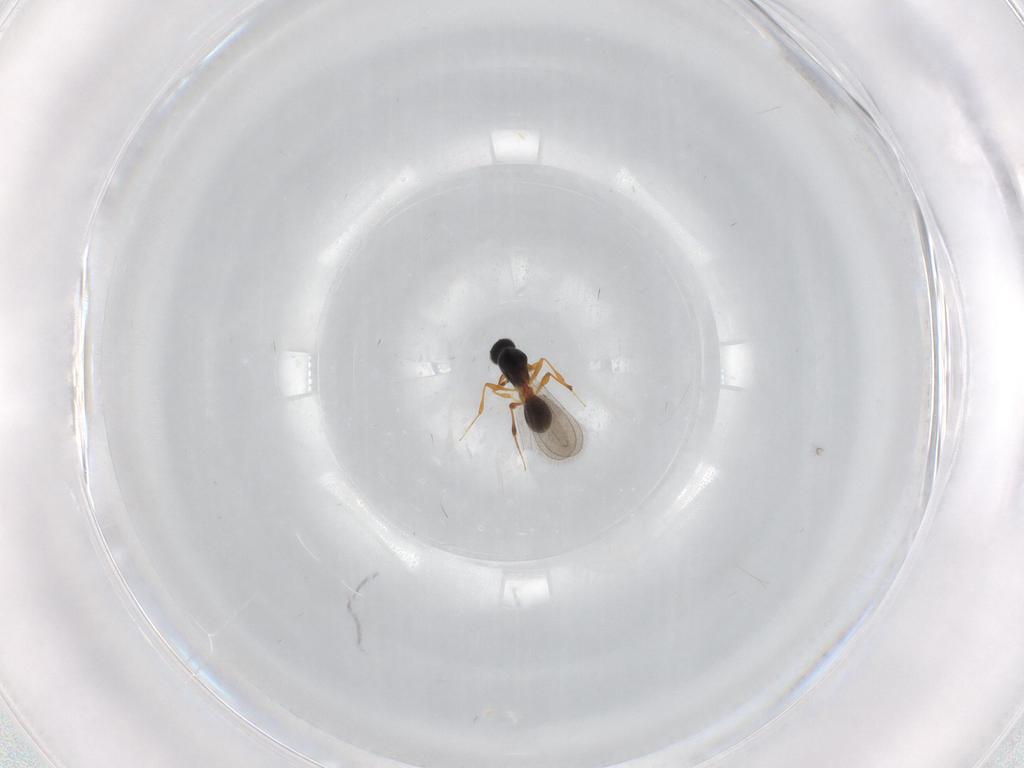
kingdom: Animalia
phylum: Arthropoda
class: Insecta
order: Hymenoptera
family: Platygastridae
